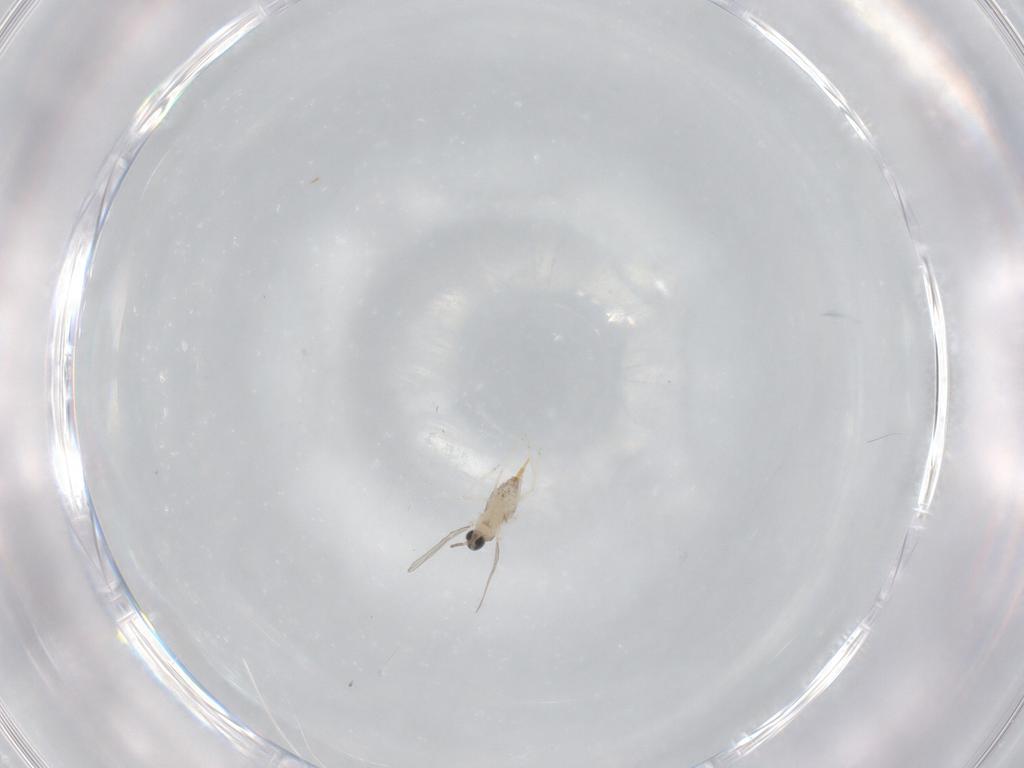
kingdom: Animalia
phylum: Arthropoda
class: Insecta
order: Diptera
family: Cecidomyiidae
